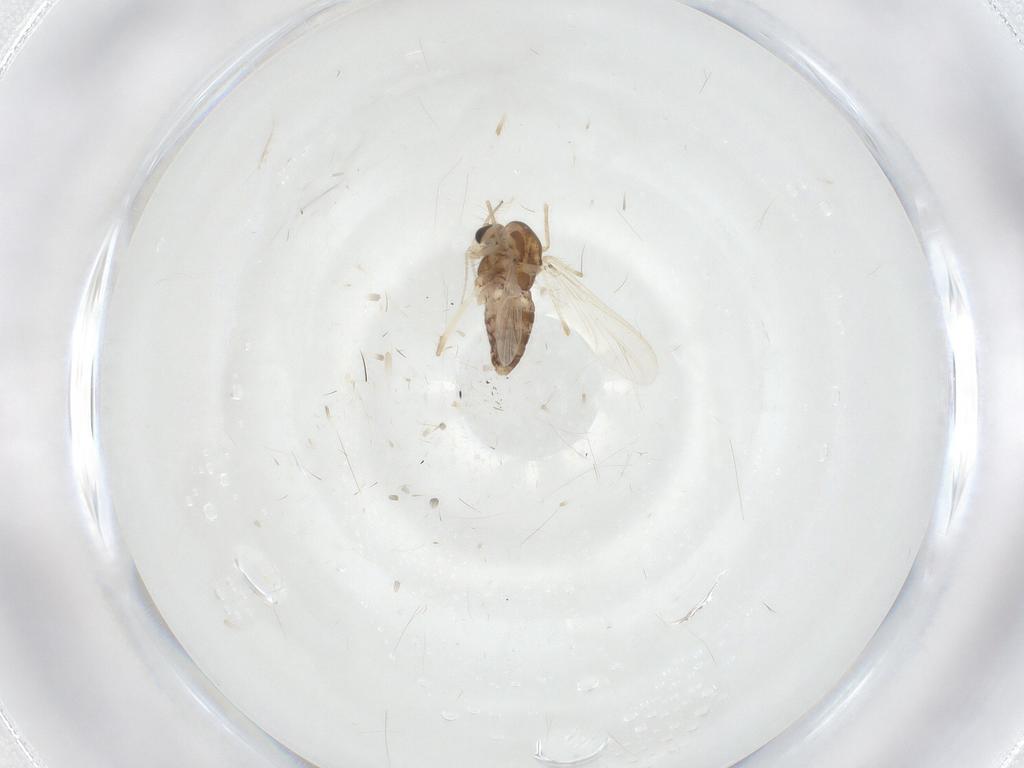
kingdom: Animalia
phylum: Arthropoda
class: Insecta
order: Diptera
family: Chironomidae
